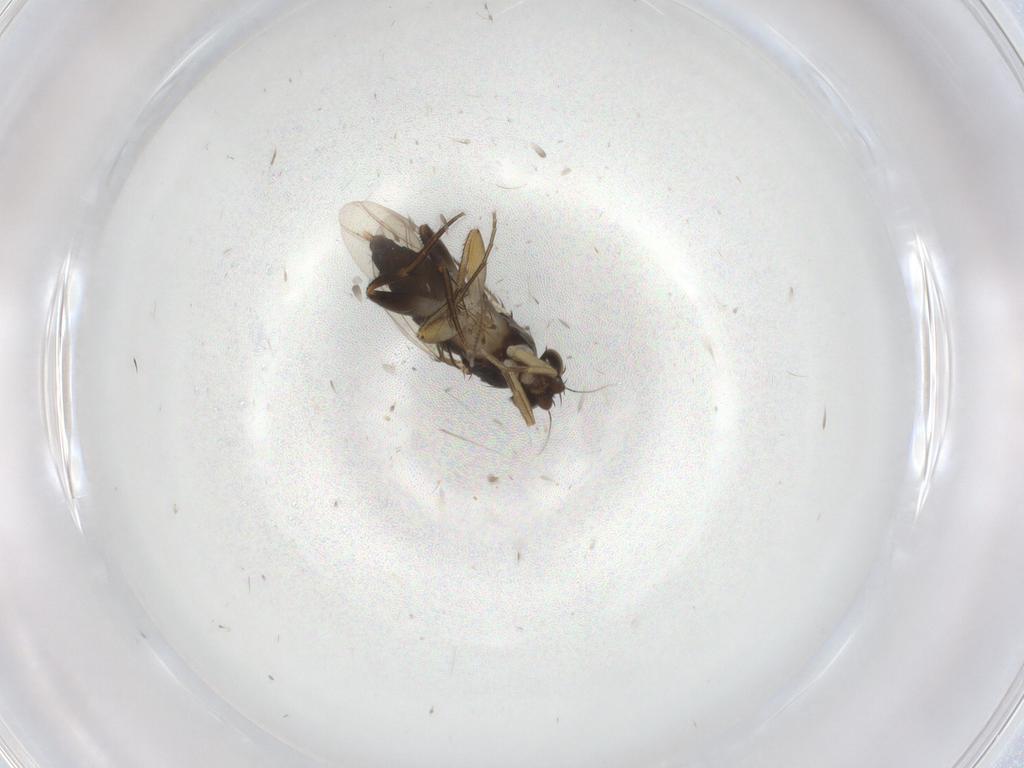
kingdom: Animalia
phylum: Arthropoda
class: Insecta
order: Diptera
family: Phoridae
